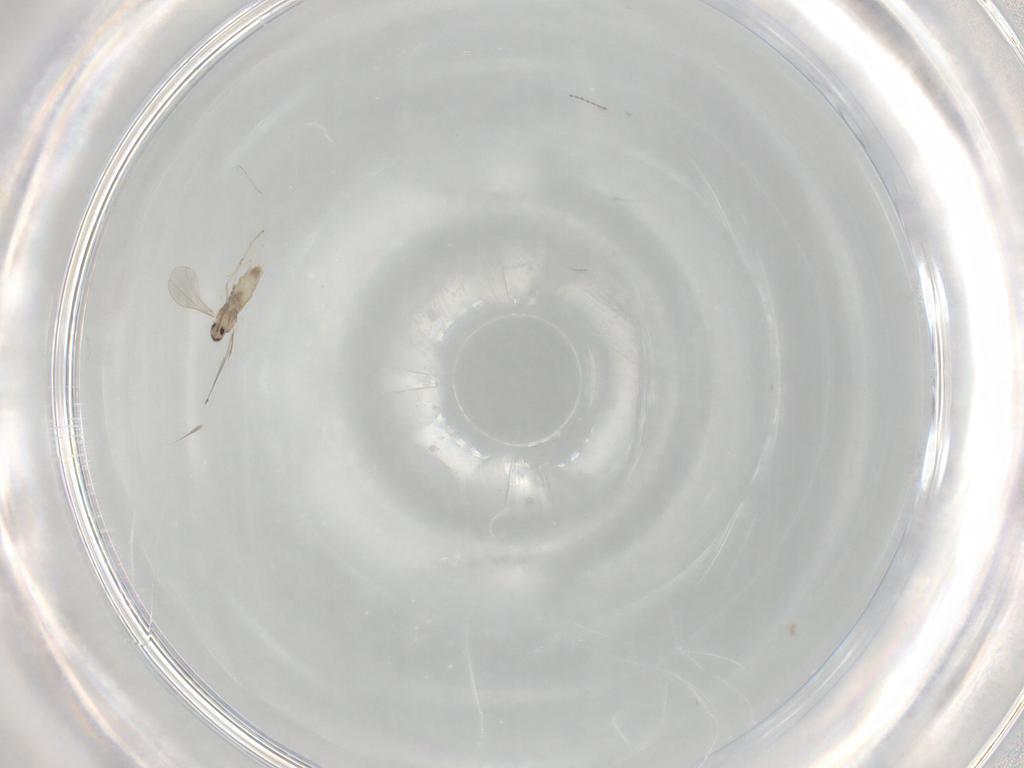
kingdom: Animalia
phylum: Arthropoda
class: Insecta
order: Diptera
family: Cecidomyiidae
